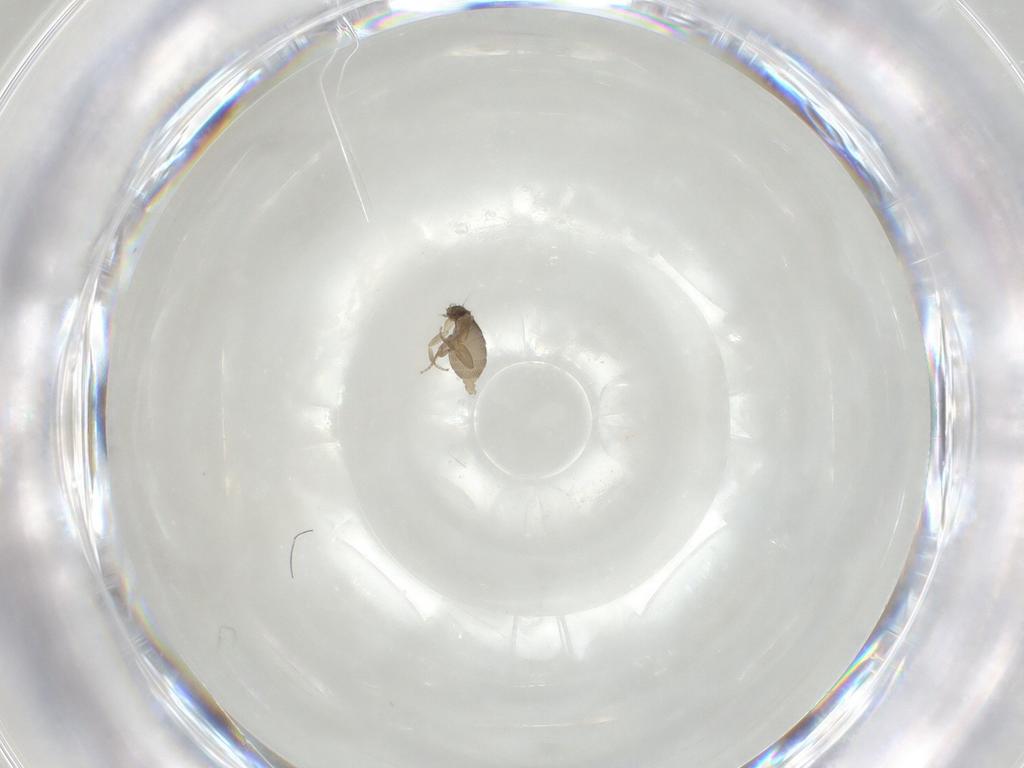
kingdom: Animalia
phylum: Arthropoda
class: Insecta
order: Diptera
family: Phoridae
